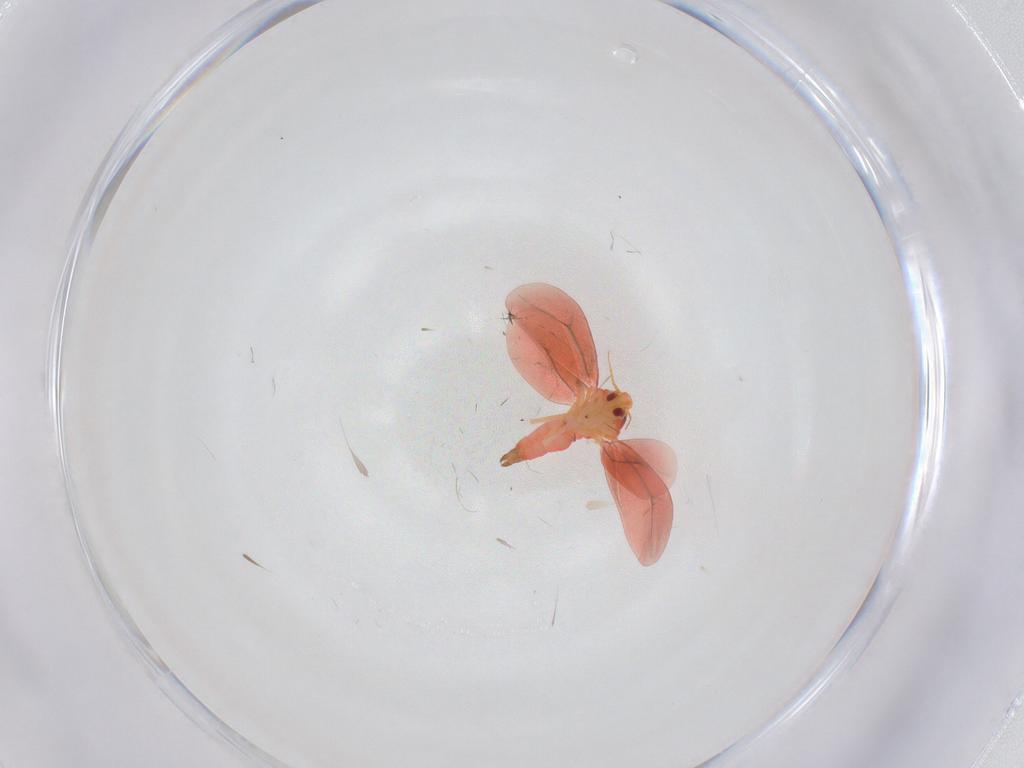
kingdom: Animalia
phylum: Arthropoda
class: Insecta
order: Hemiptera
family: Aleyrodidae
